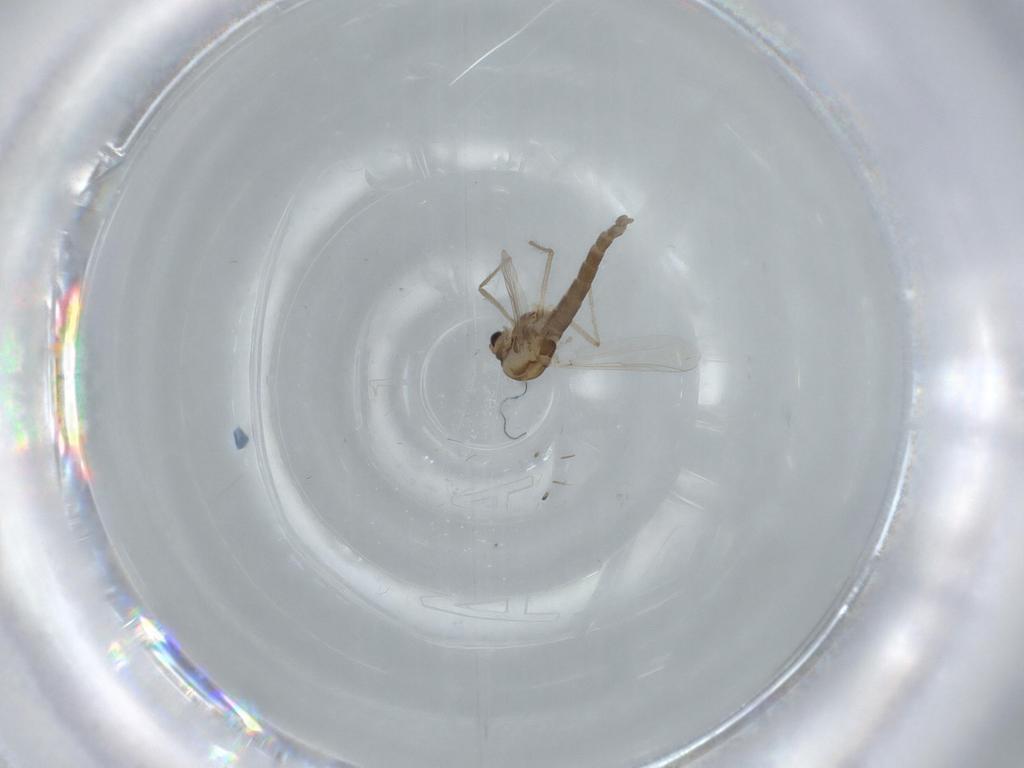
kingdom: Animalia
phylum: Arthropoda
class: Insecta
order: Diptera
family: Chironomidae
